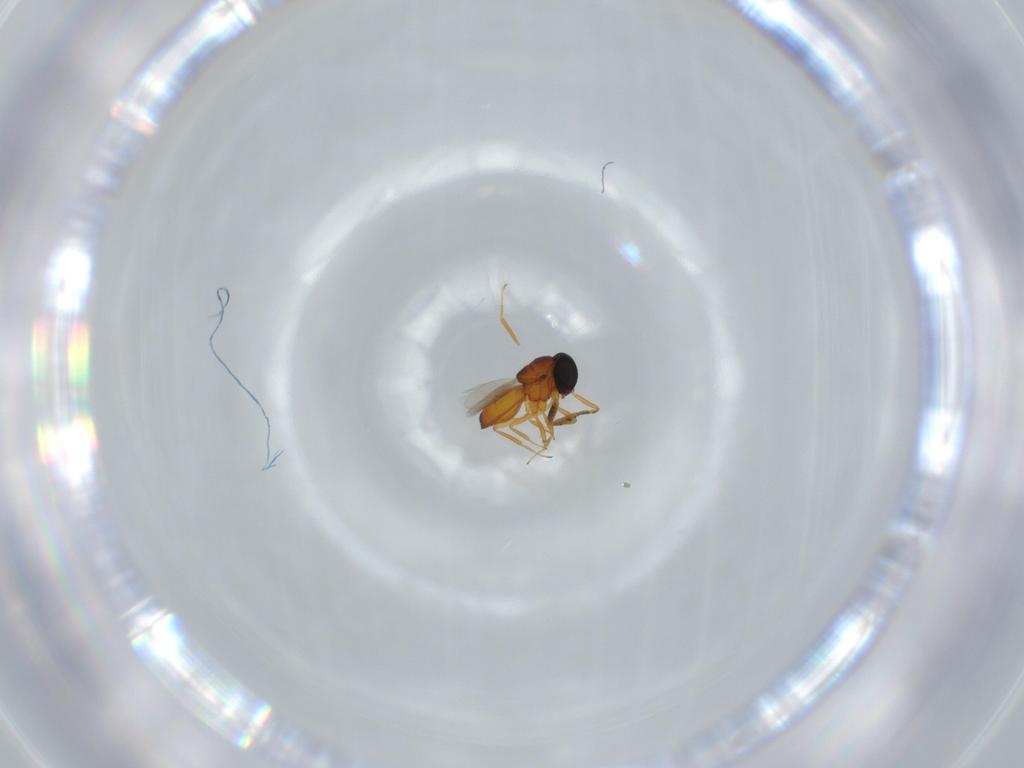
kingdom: Animalia
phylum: Arthropoda
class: Insecta
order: Hymenoptera
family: Scelionidae
